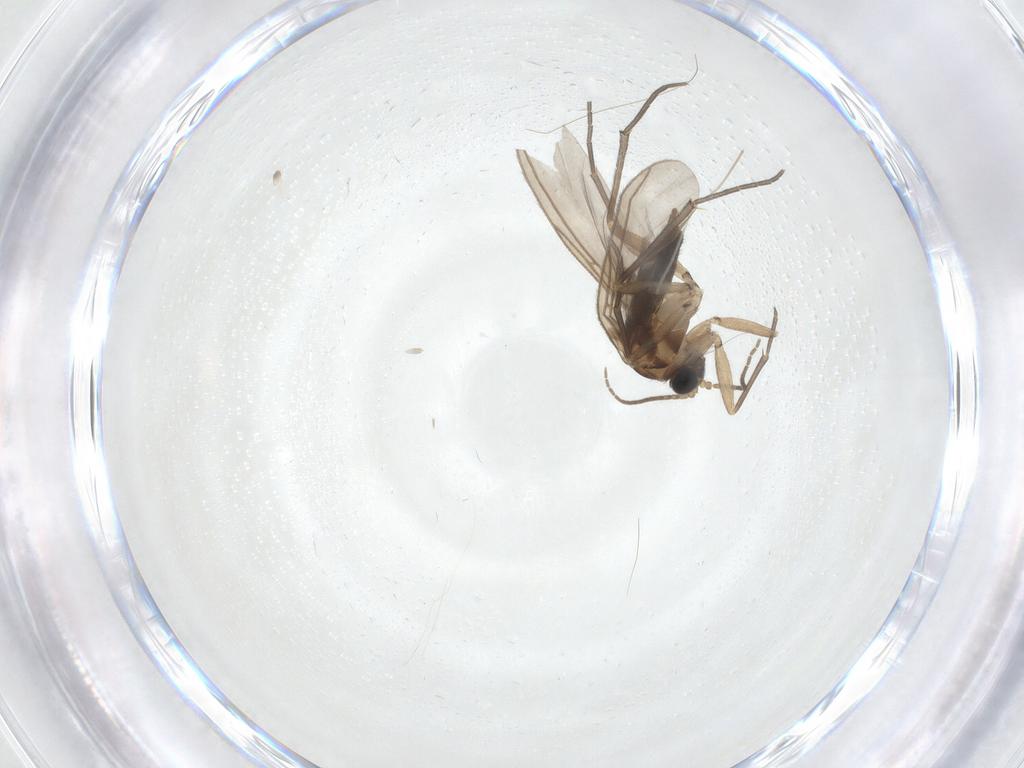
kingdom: Animalia
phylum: Arthropoda
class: Insecta
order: Diptera
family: Cecidomyiidae
